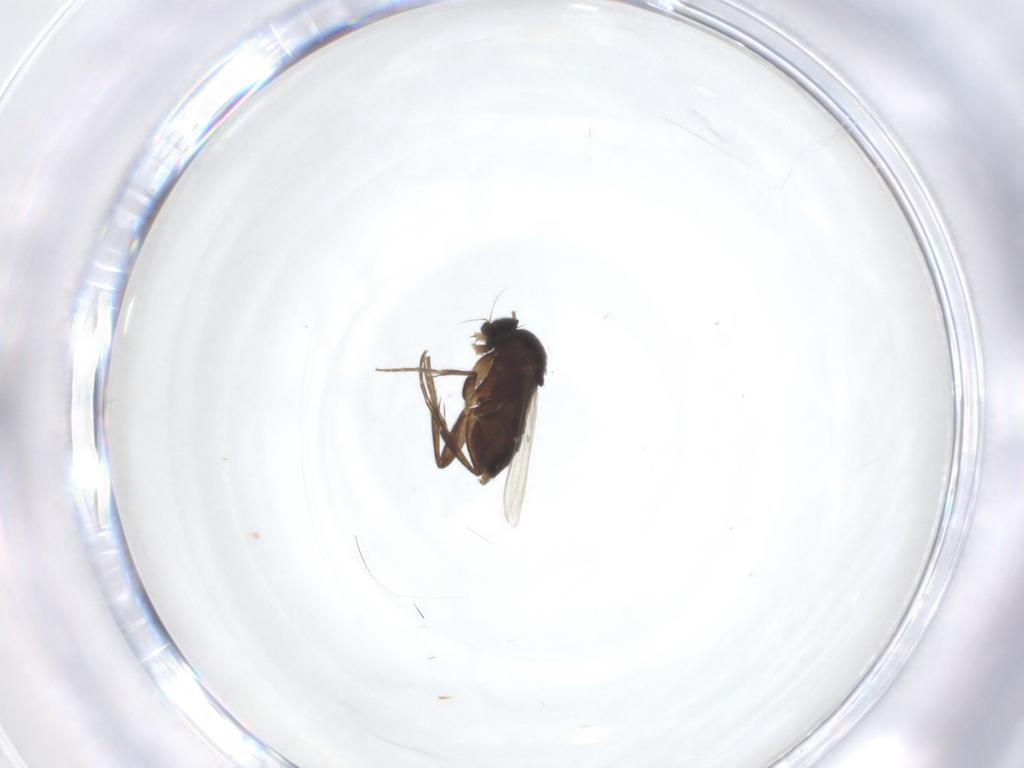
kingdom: Animalia
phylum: Arthropoda
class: Insecta
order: Diptera
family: Phoridae
